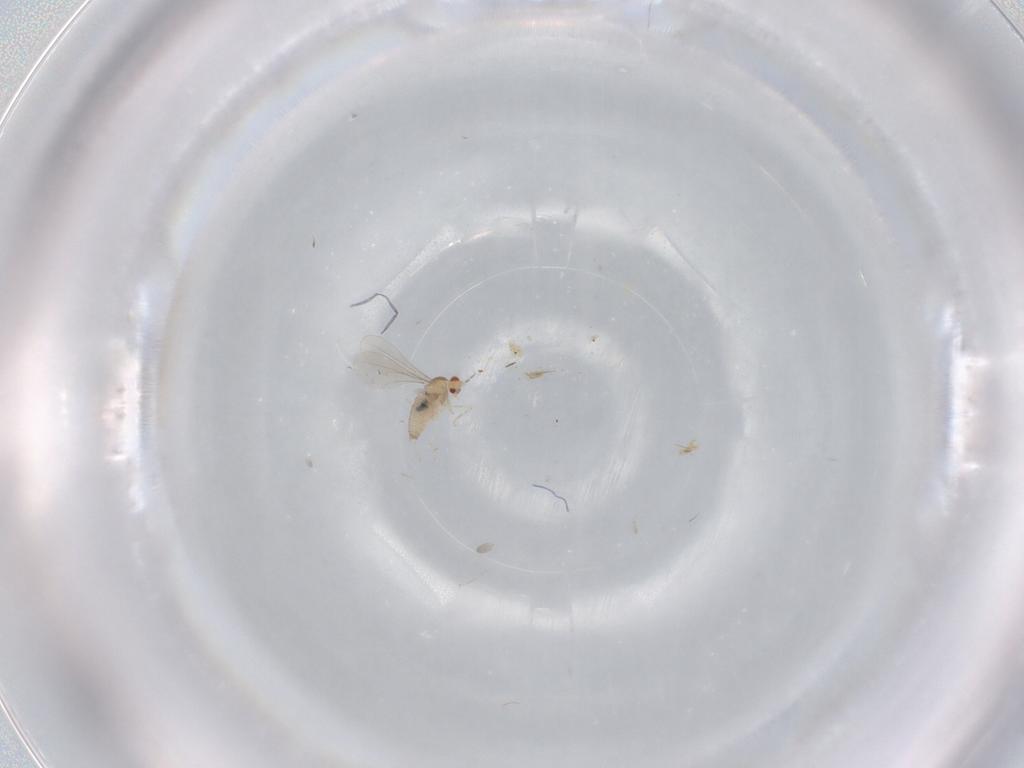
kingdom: Animalia
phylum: Arthropoda
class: Insecta
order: Diptera
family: Cecidomyiidae
